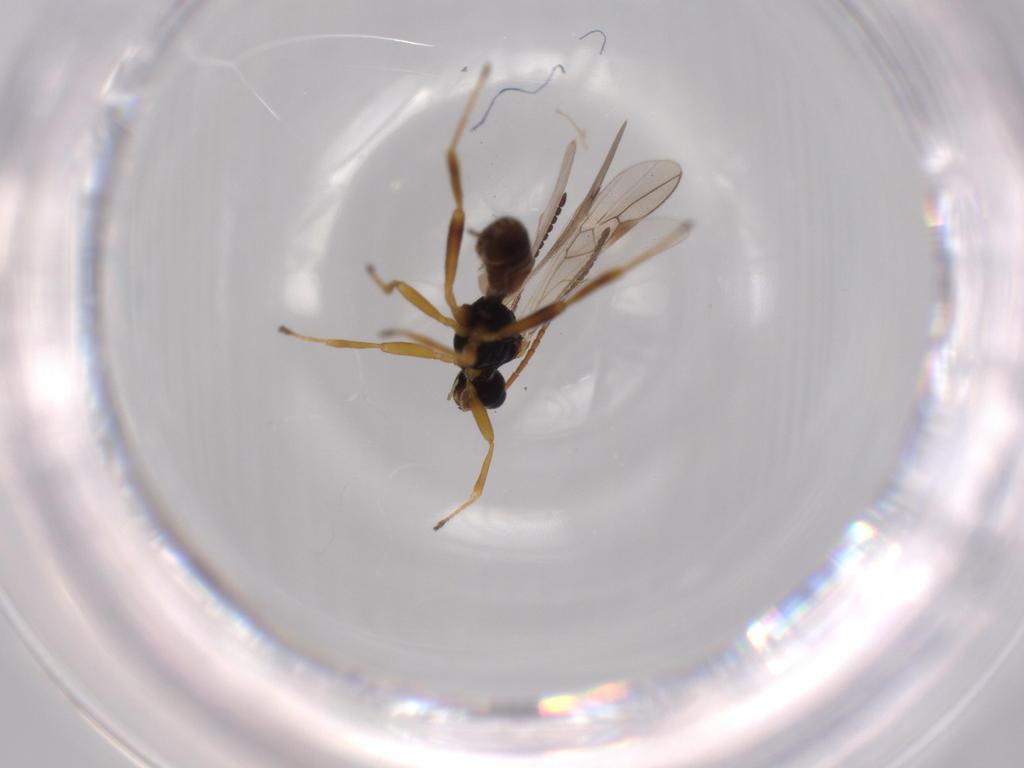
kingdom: Animalia
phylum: Arthropoda
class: Insecta
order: Hymenoptera
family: Braconidae
